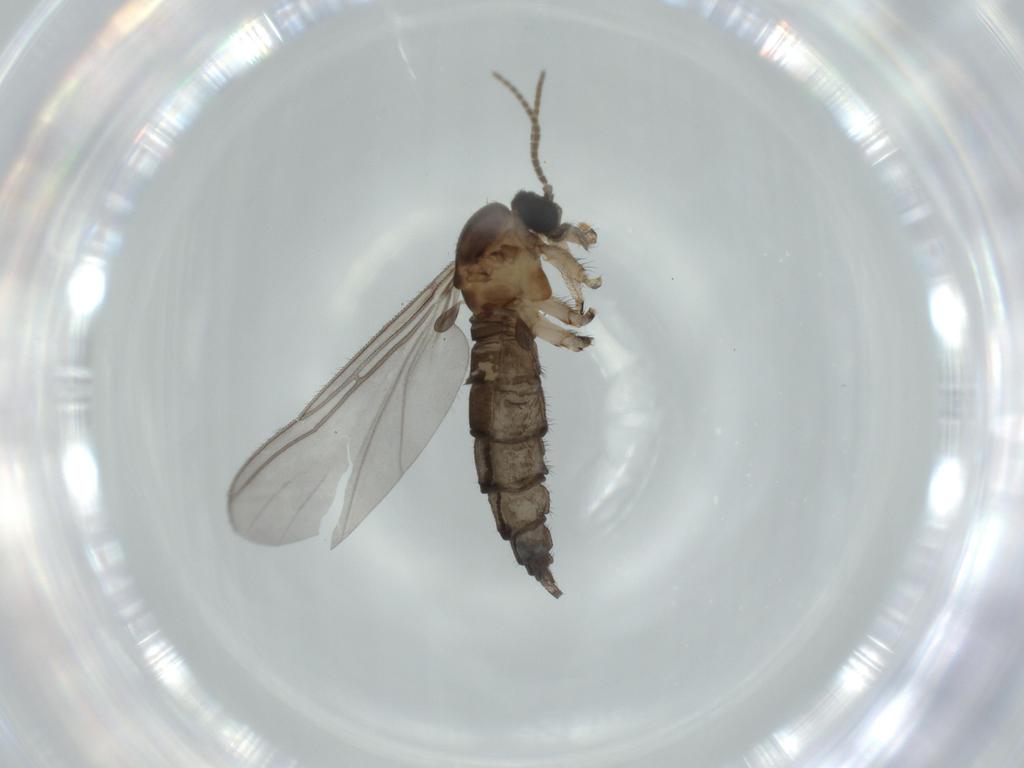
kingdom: Animalia
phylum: Arthropoda
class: Insecta
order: Diptera
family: Sciaridae
